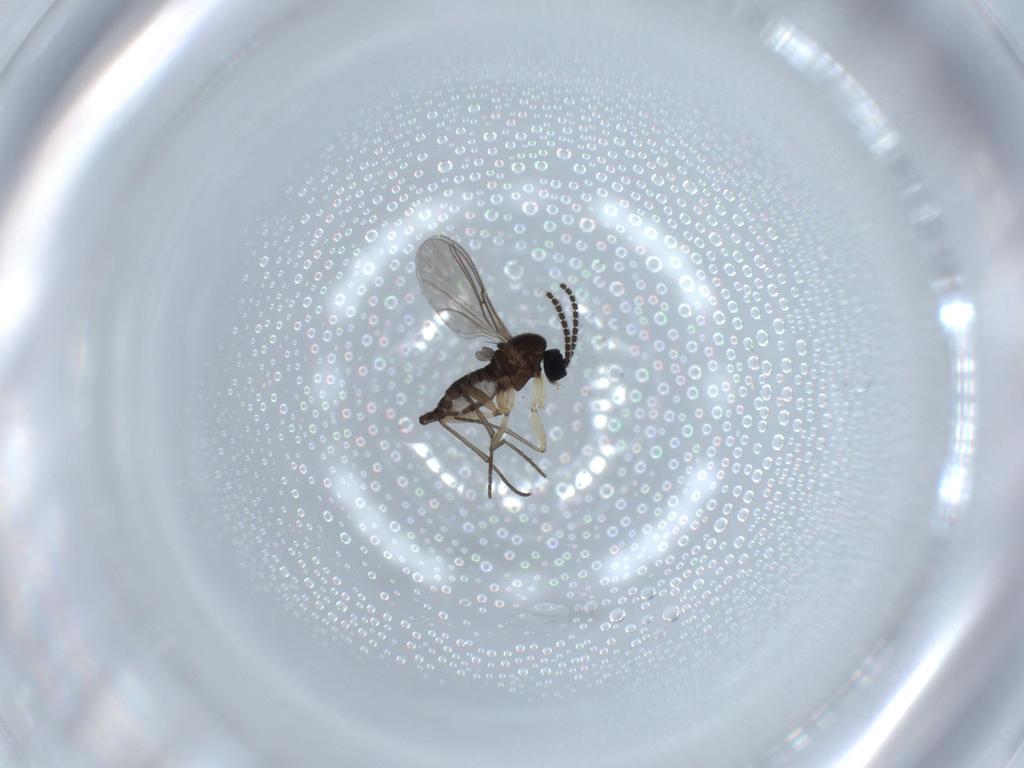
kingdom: Animalia
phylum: Arthropoda
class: Insecta
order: Diptera
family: Sciaridae
